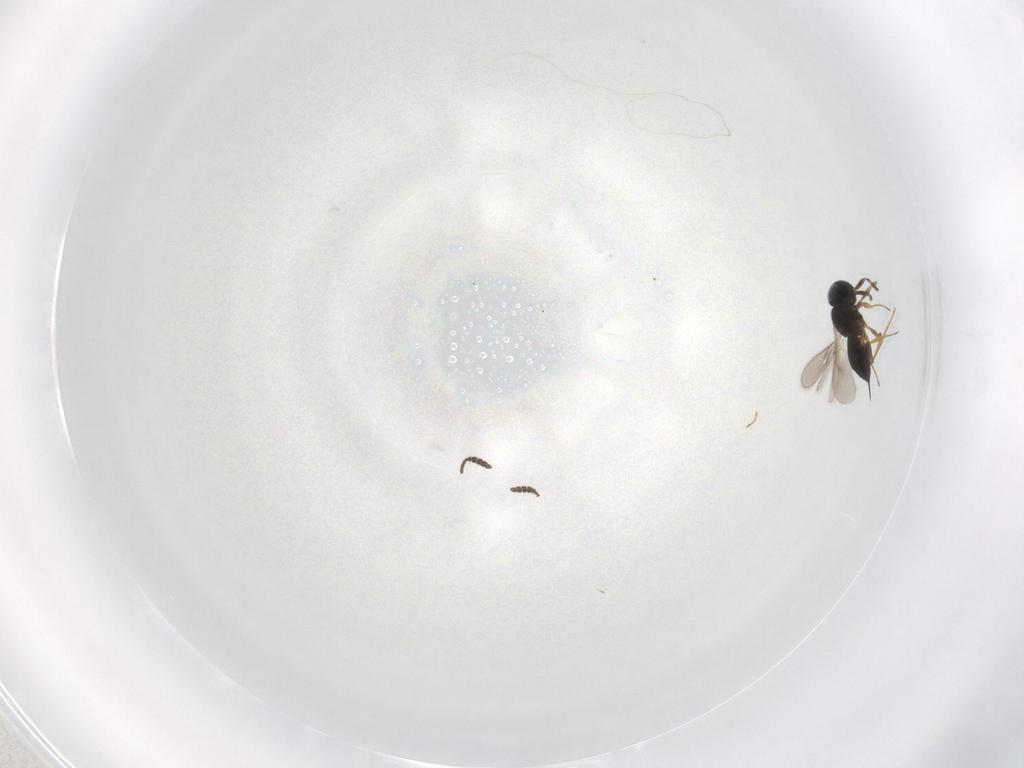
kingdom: Animalia
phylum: Arthropoda
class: Insecta
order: Hymenoptera
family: Scelionidae
